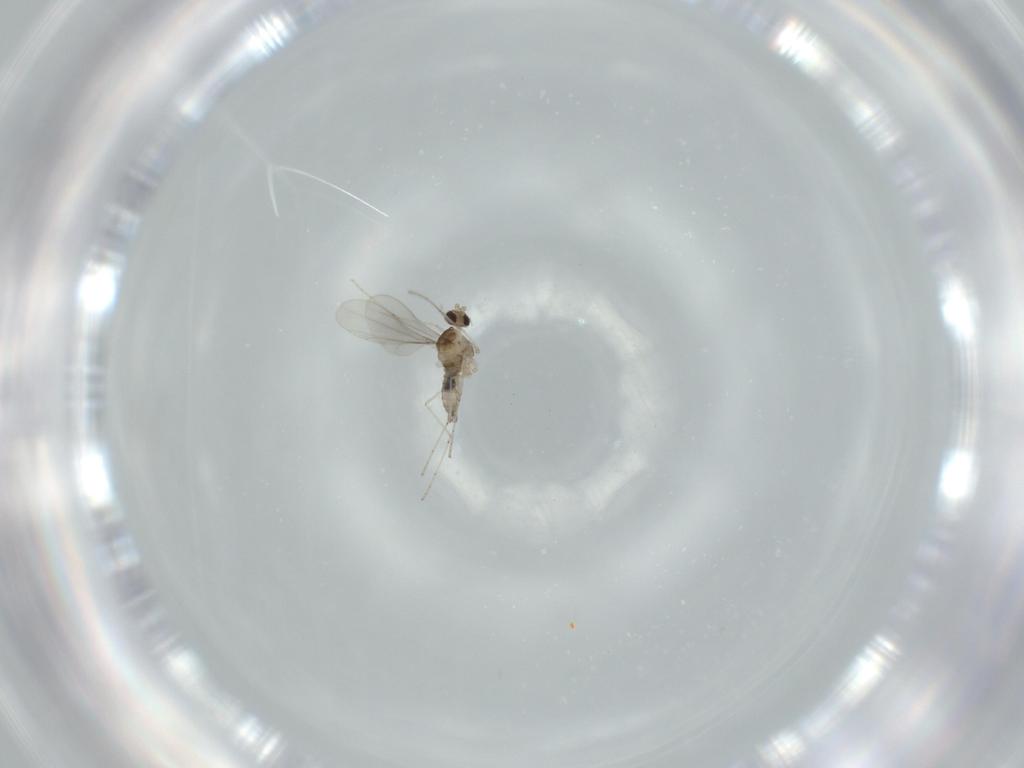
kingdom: Animalia
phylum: Arthropoda
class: Insecta
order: Diptera
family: Cecidomyiidae
